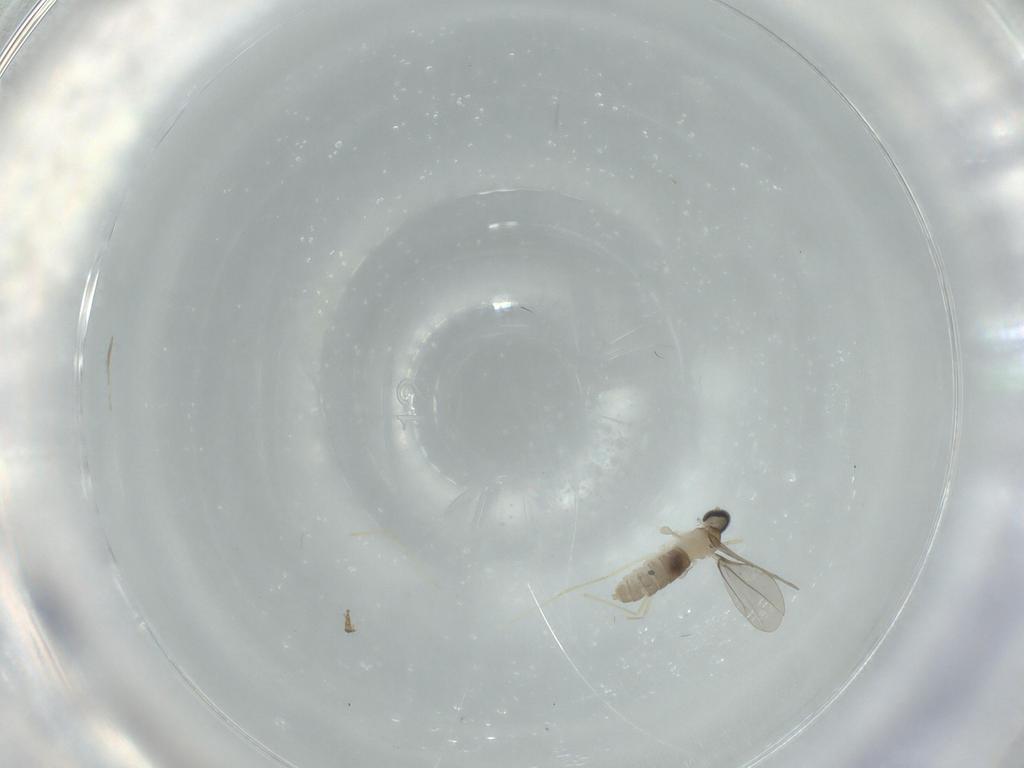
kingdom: Animalia
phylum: Arthropoda
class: Insecta
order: Diptera
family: Cecidomyiidae
